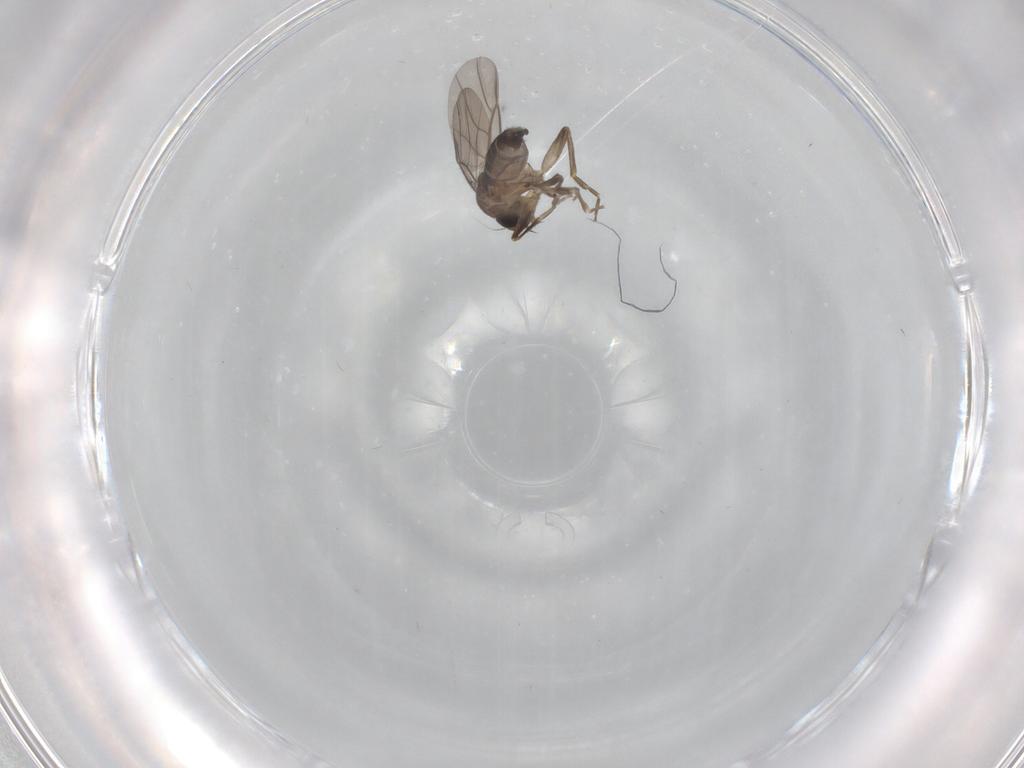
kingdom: Animalia
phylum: Arthropoda
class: Insecta
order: Diptera
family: Phoridae
